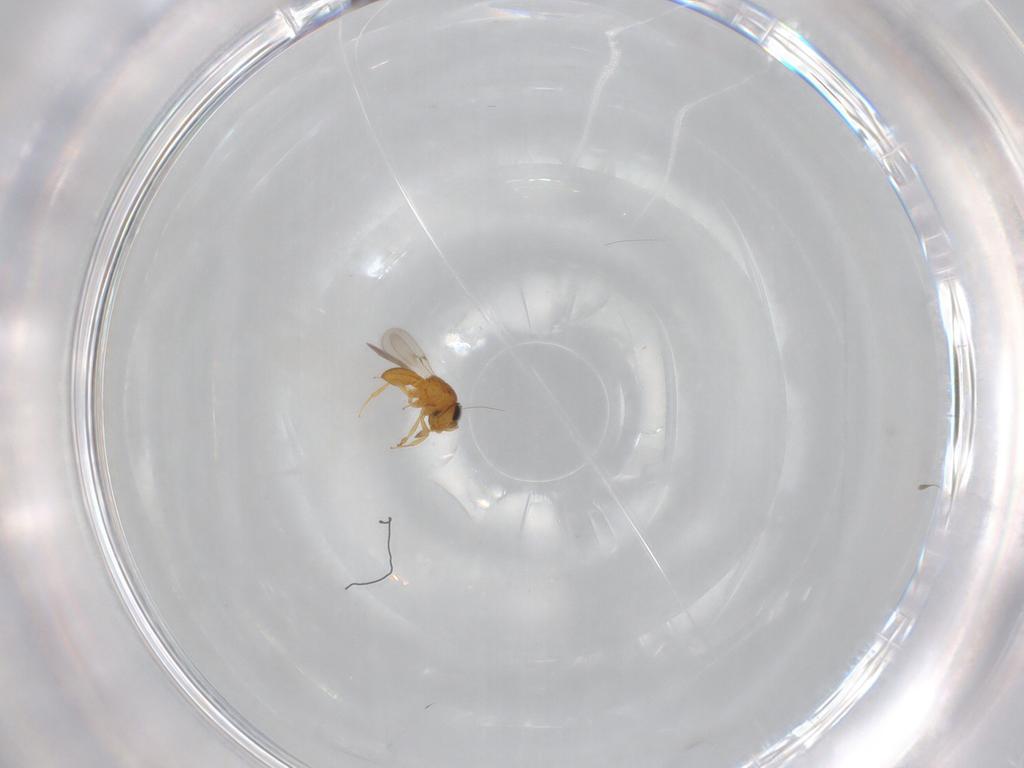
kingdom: Animalia
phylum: Arthropoda
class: Insecta
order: Hymenoptera
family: Scelionidae
